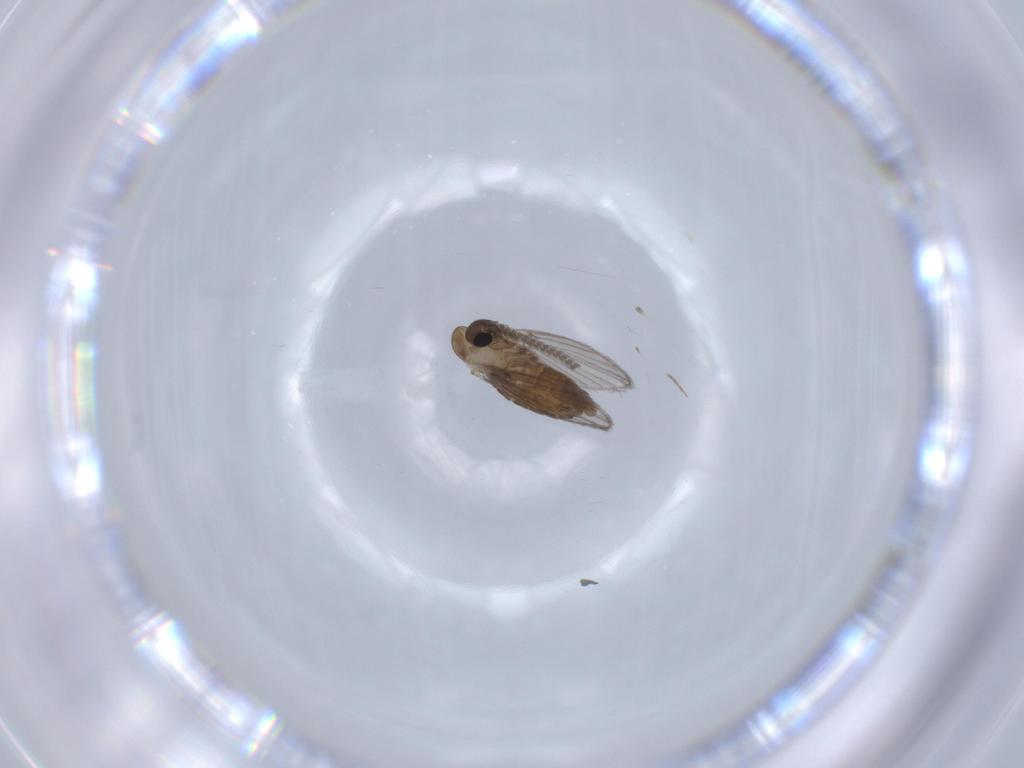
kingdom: Animalia
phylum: Arthropoda
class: Insecta
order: Diptera
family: Psychodidae
